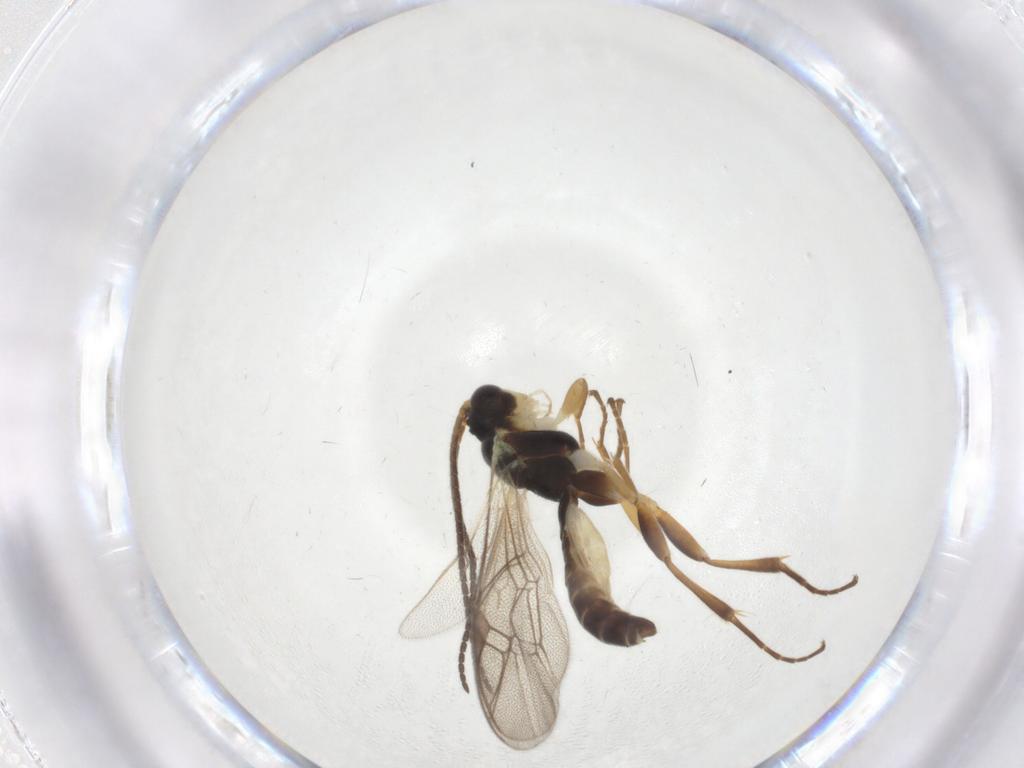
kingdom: Animalia
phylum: Arthropoda
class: Insecta
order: Hymenoptera
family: Ichneumonidae
